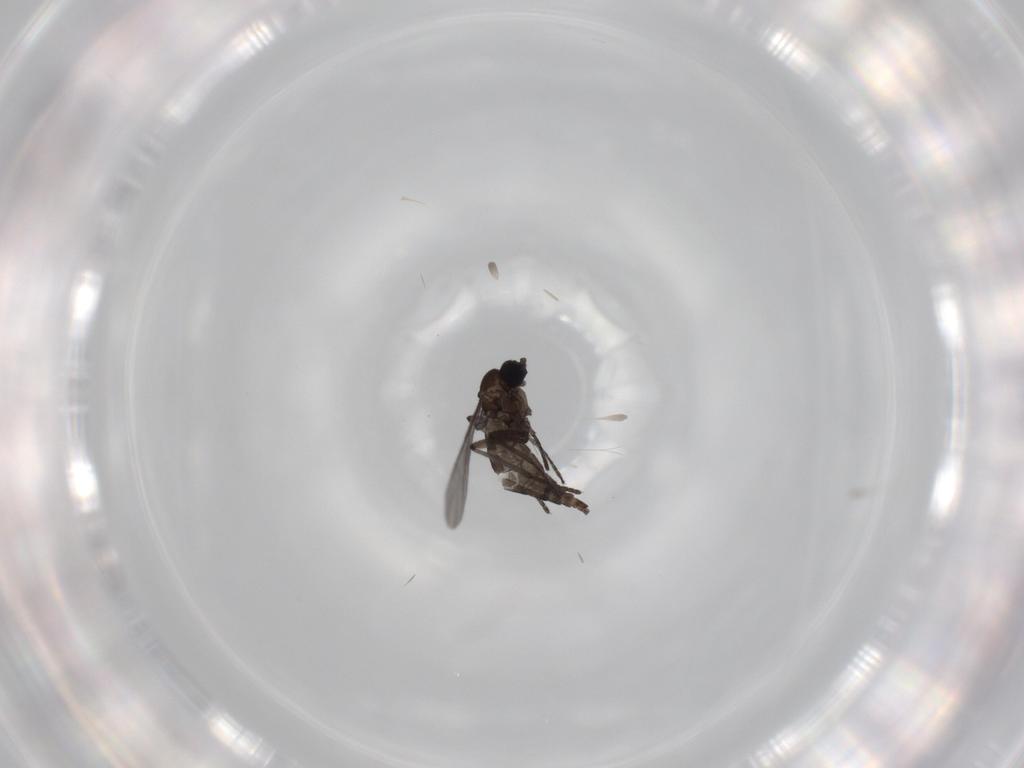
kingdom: Animalia
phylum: Arthropoda
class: Insecta
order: Diptera
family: Sciaridae
